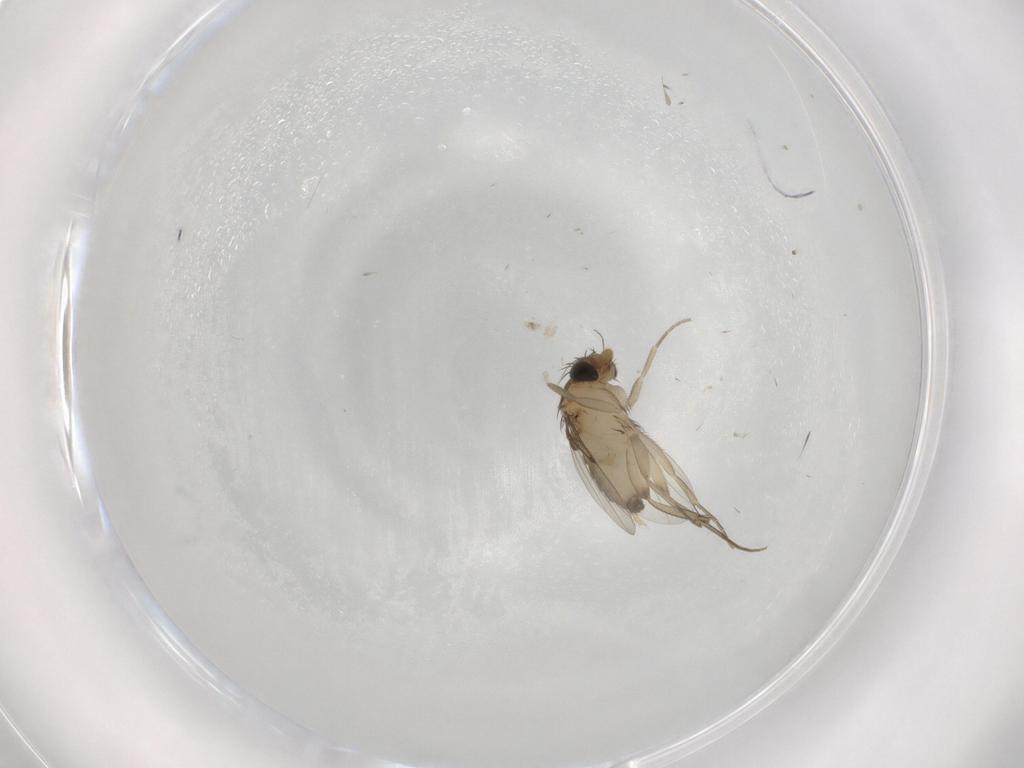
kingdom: Animalia
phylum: Arthropoda
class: Insecta
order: Diptera
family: Phoridae
